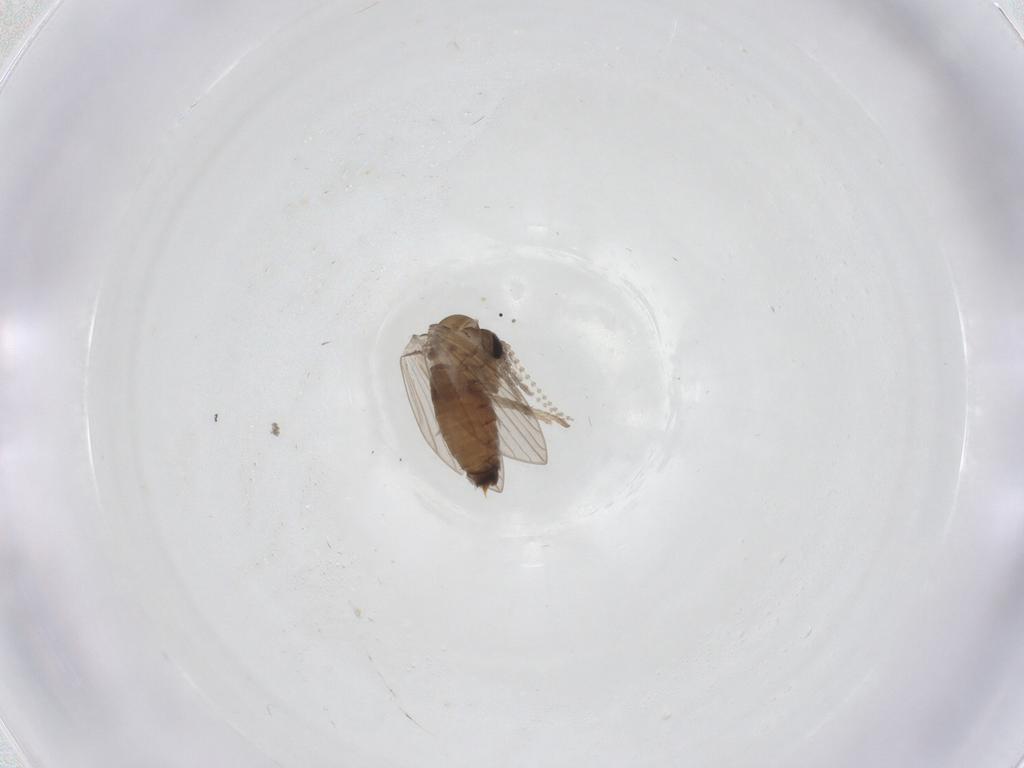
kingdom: Animalia
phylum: Arthropoda
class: Insecta
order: Diptera
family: Psychodidae
